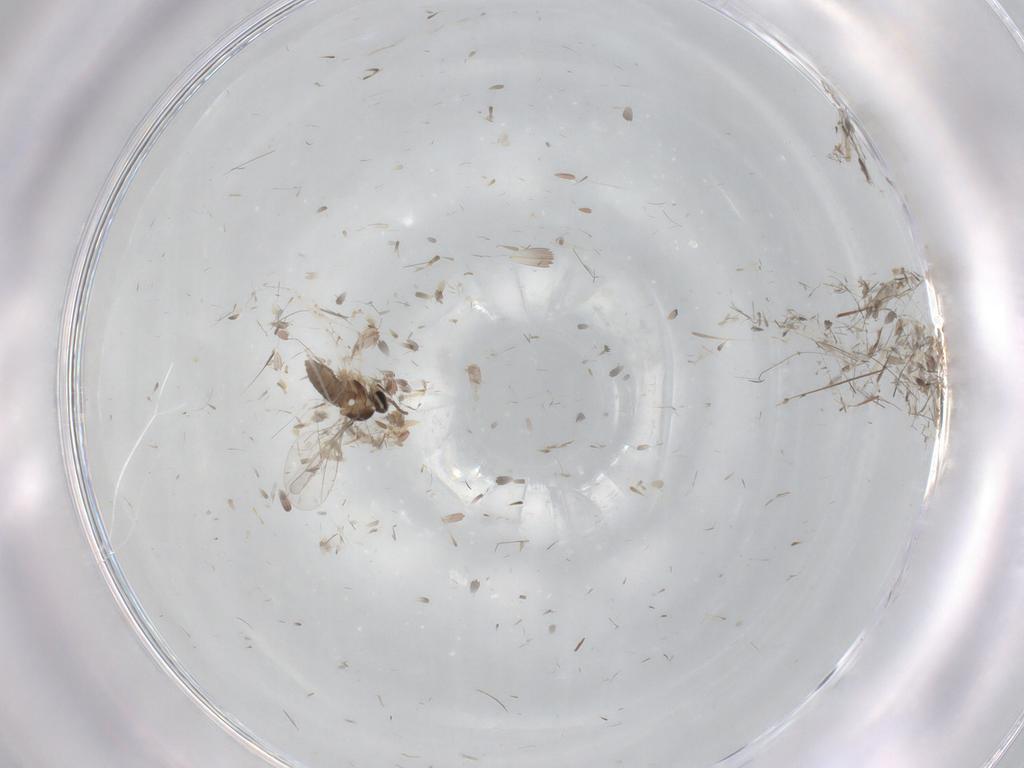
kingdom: Animalia
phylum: Arthropoda
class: Insecta
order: Diptera
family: Cecidomyiidae
